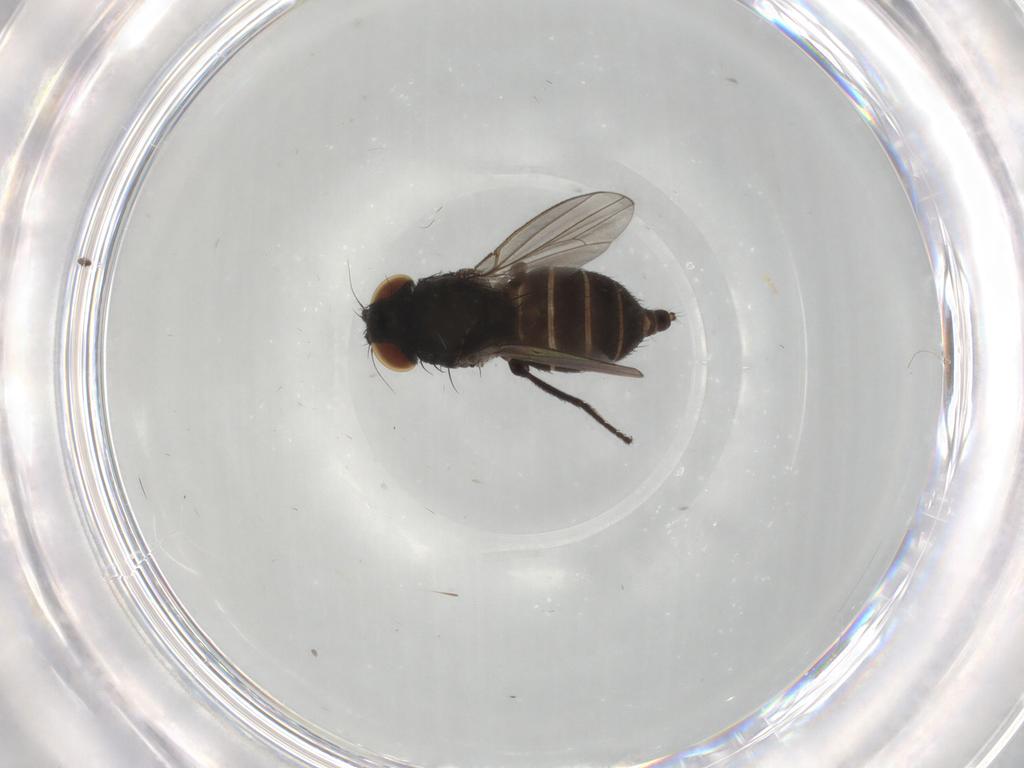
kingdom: Animalia
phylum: Arthropoda
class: Insecta
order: Diptera
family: Milichiidae
